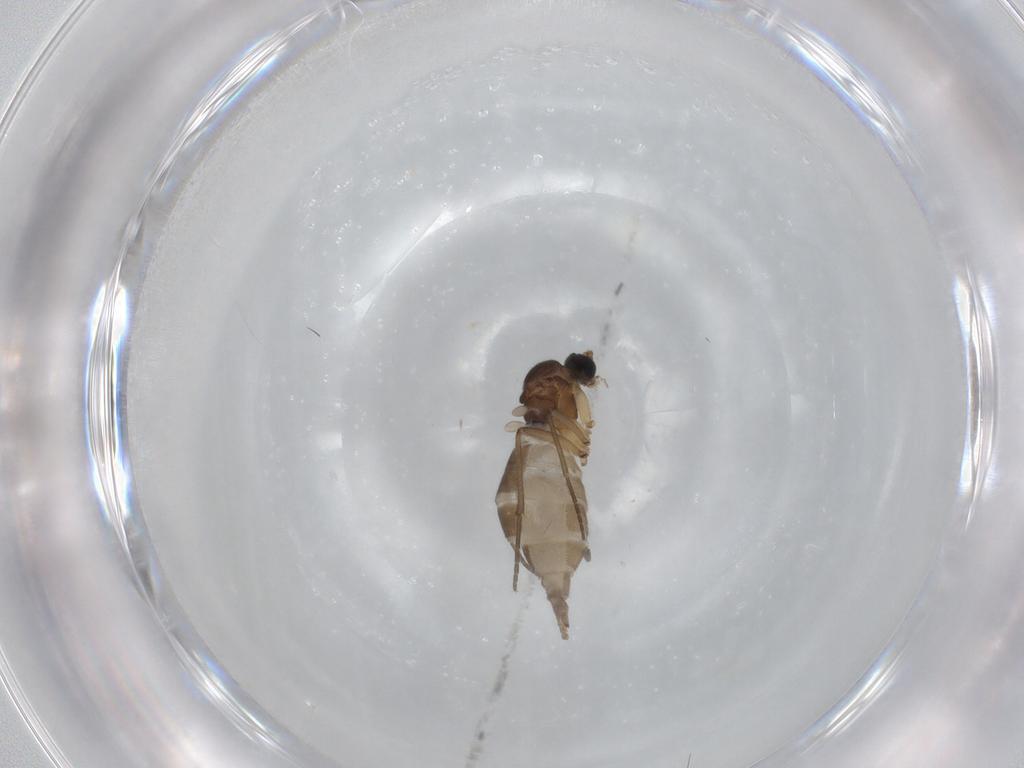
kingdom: Animalia
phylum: Arthropoda
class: Insecta
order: Diptera
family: Sciaridae
